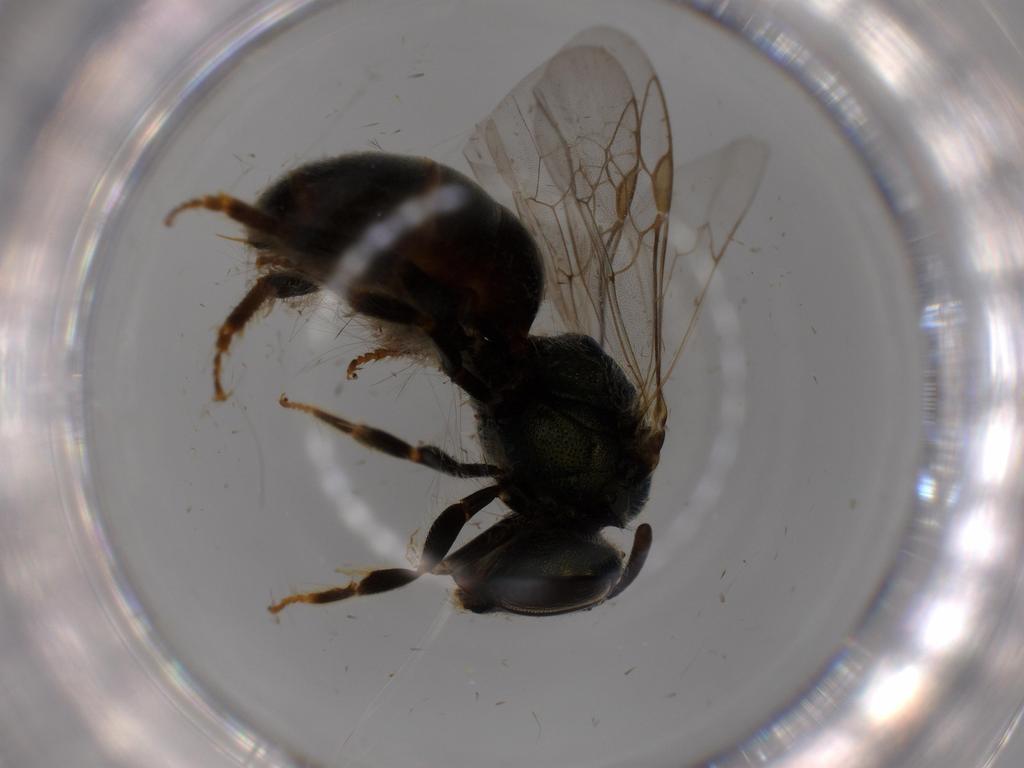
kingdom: Animalia
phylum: Arthropoda
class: Insecta
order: Hymenoptera
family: Halictidae
